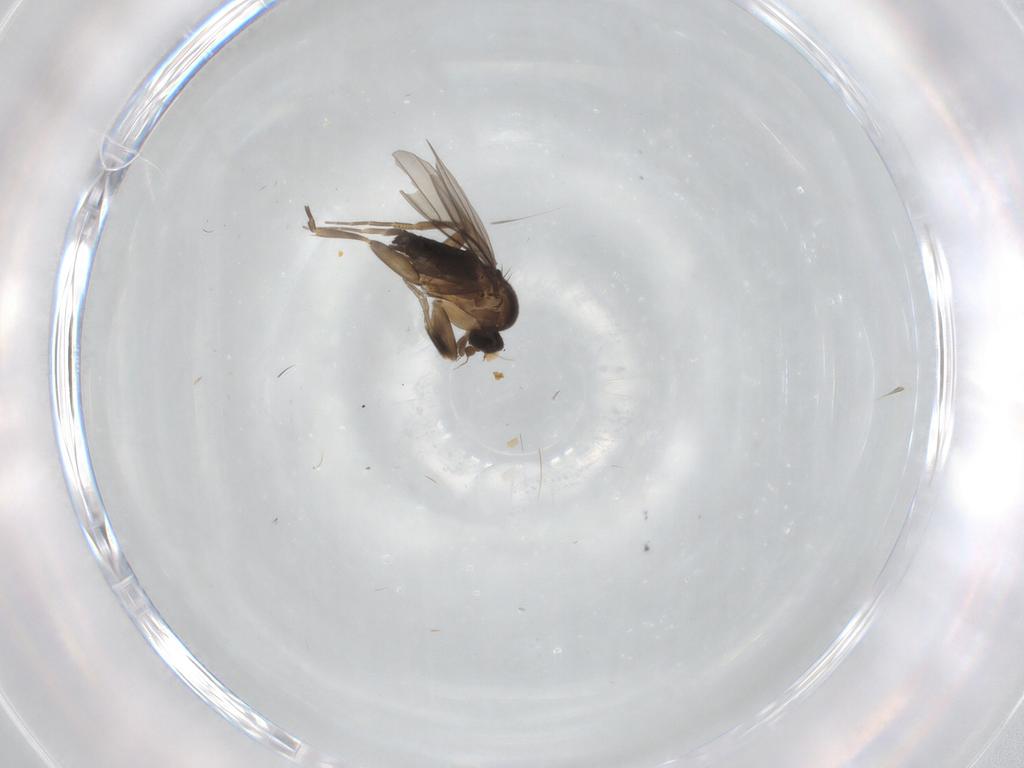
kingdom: Animalia
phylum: Arthropoda
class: Insecta
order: Diptera
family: Phoridae
